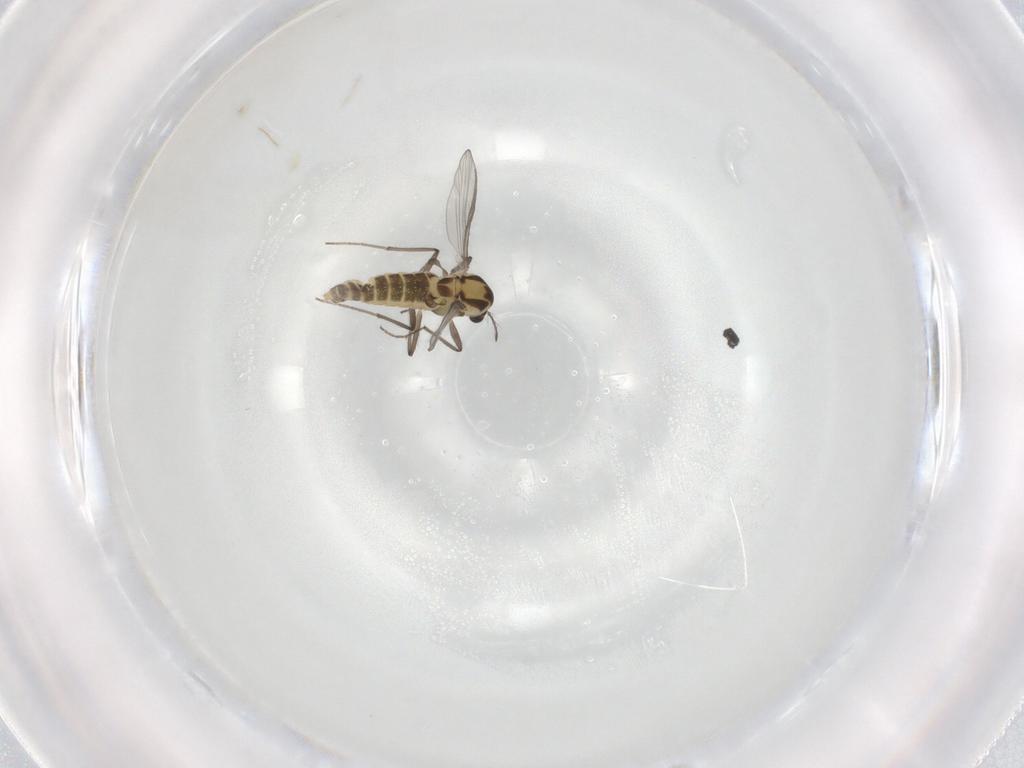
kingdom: Animalia
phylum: Arthropoda
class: Insecta
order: Diptera
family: Chironomidae
